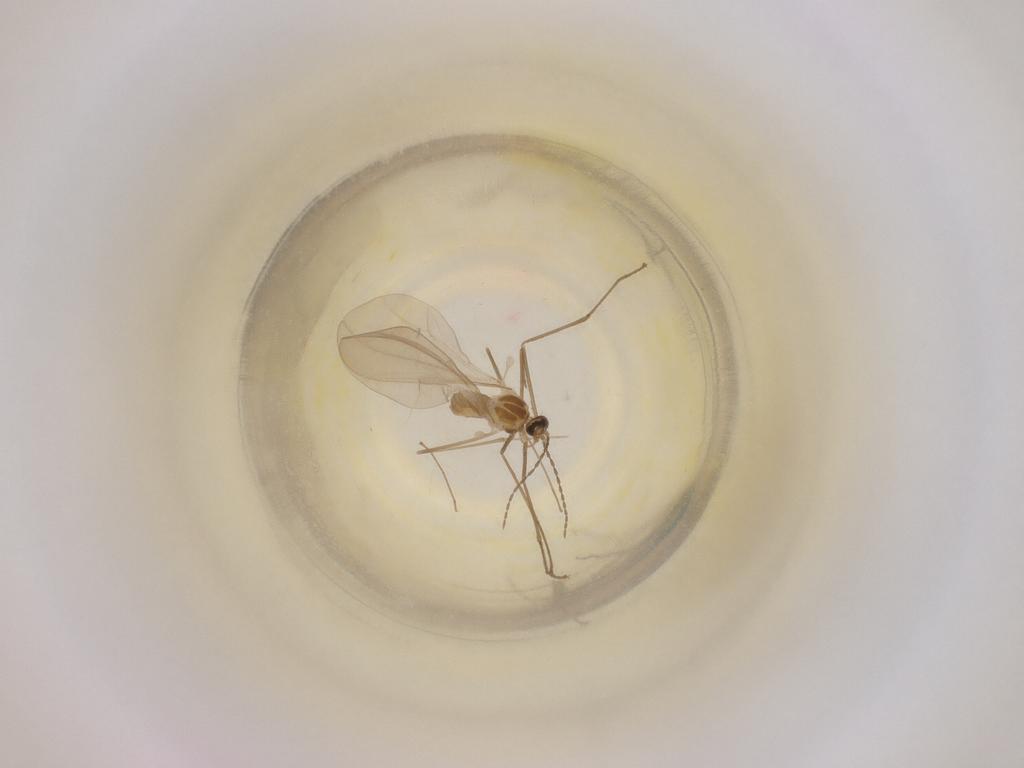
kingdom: Animalia
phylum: Arthropoda
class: Insecta
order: Diptera
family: Cecidomyiidae
